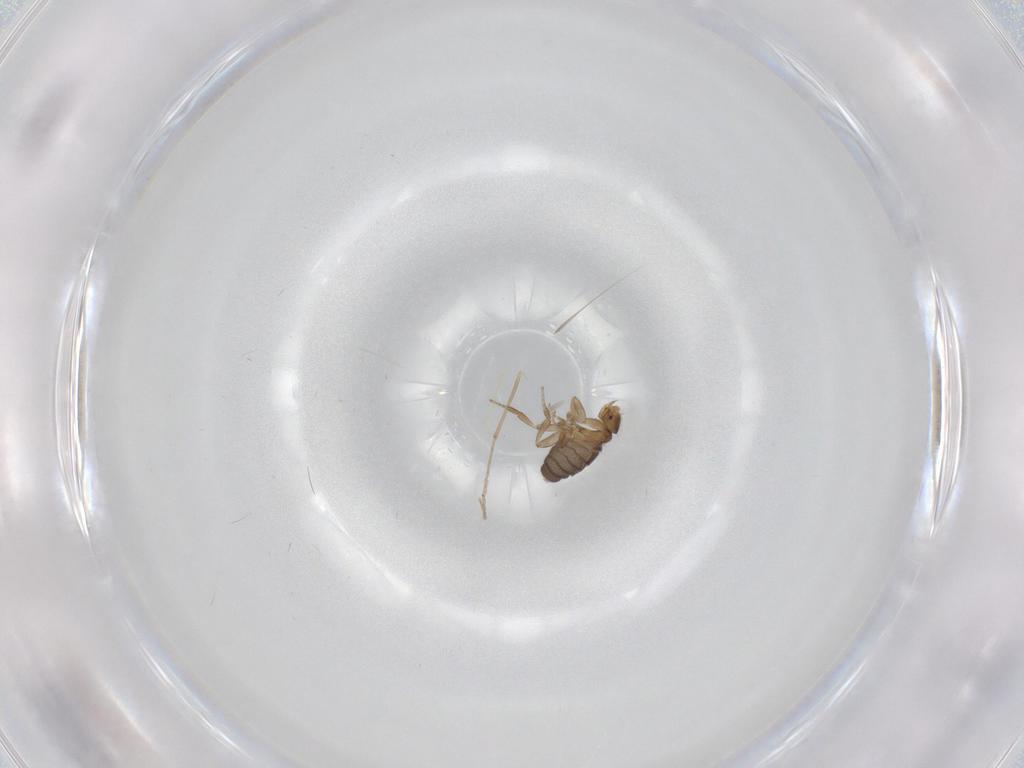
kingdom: Animalia
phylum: Arthropoda
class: Insecta
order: Diptera
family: Phoridae
